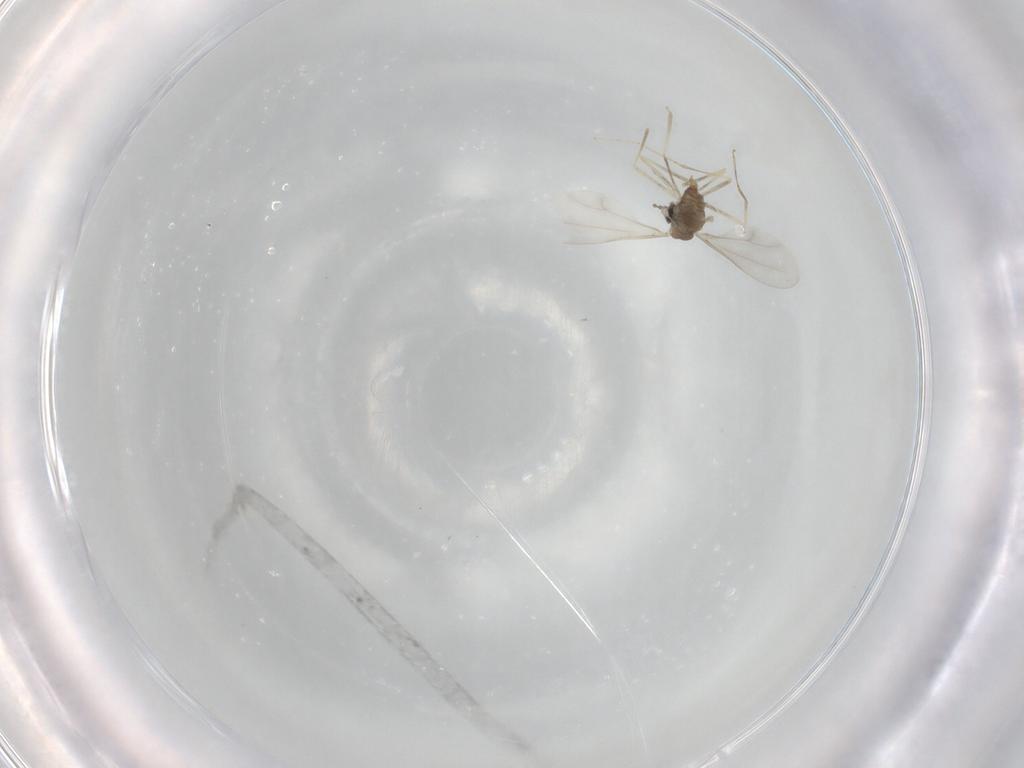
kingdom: Animalia
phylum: Arthropoda
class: Insecta
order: Diptera
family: Cecidomyiidae
